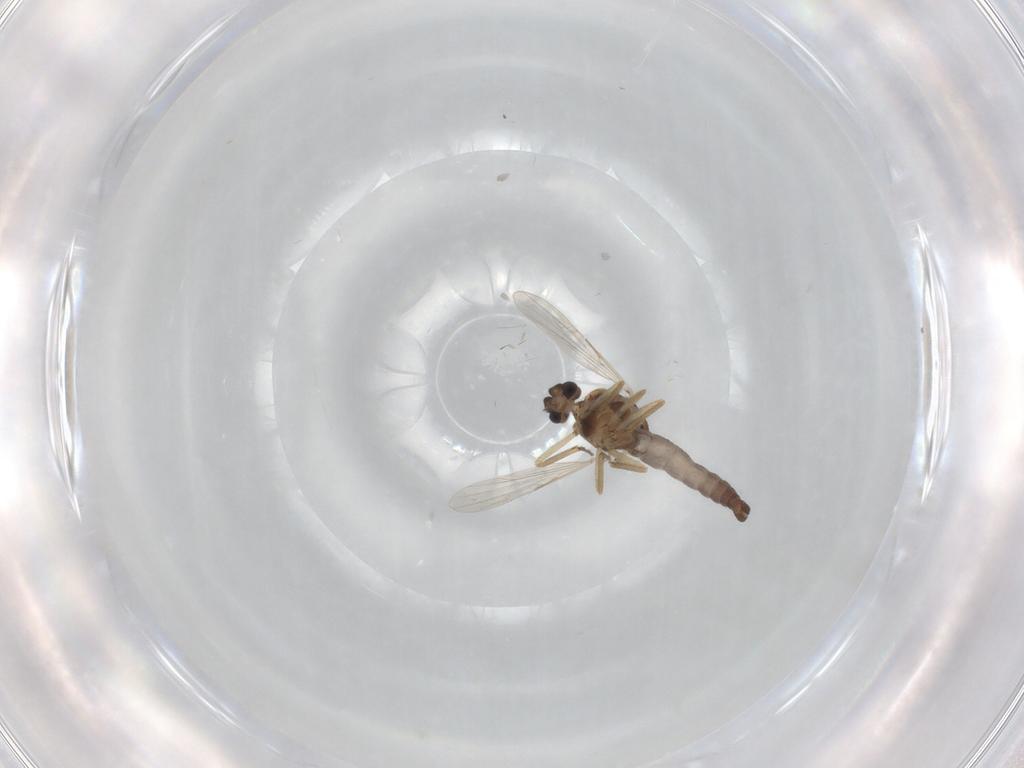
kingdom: Animalia
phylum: Arthropoda
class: Insecta
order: Diptera
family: Ceratopogonidae
